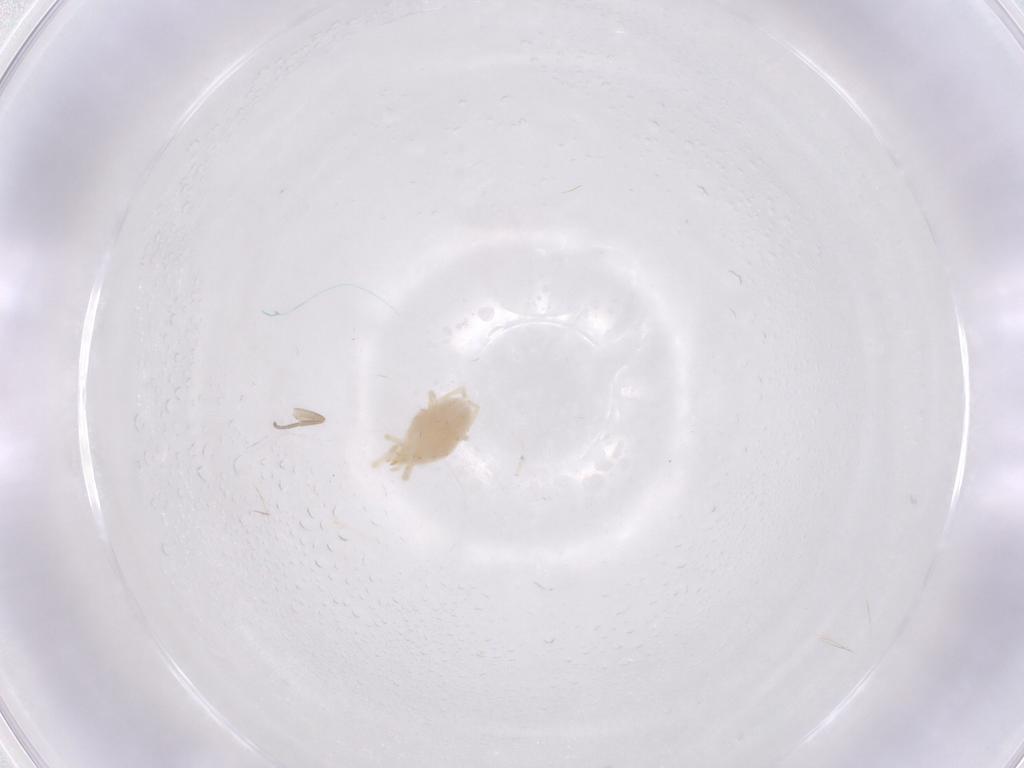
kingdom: Animalia
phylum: Arthropoda
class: Arachnida
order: Trombidiformes
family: Erythraeidae
